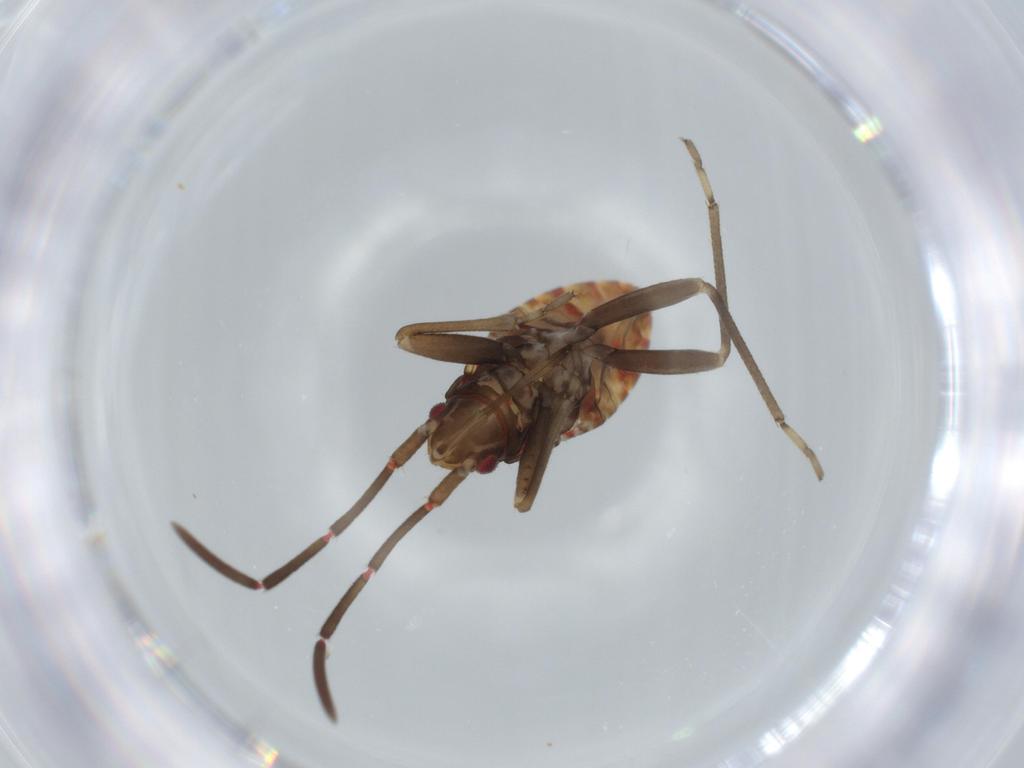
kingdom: Animalia
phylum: Arthropoda
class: Insecta
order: Hemiptera
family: Rhyparochromidae
